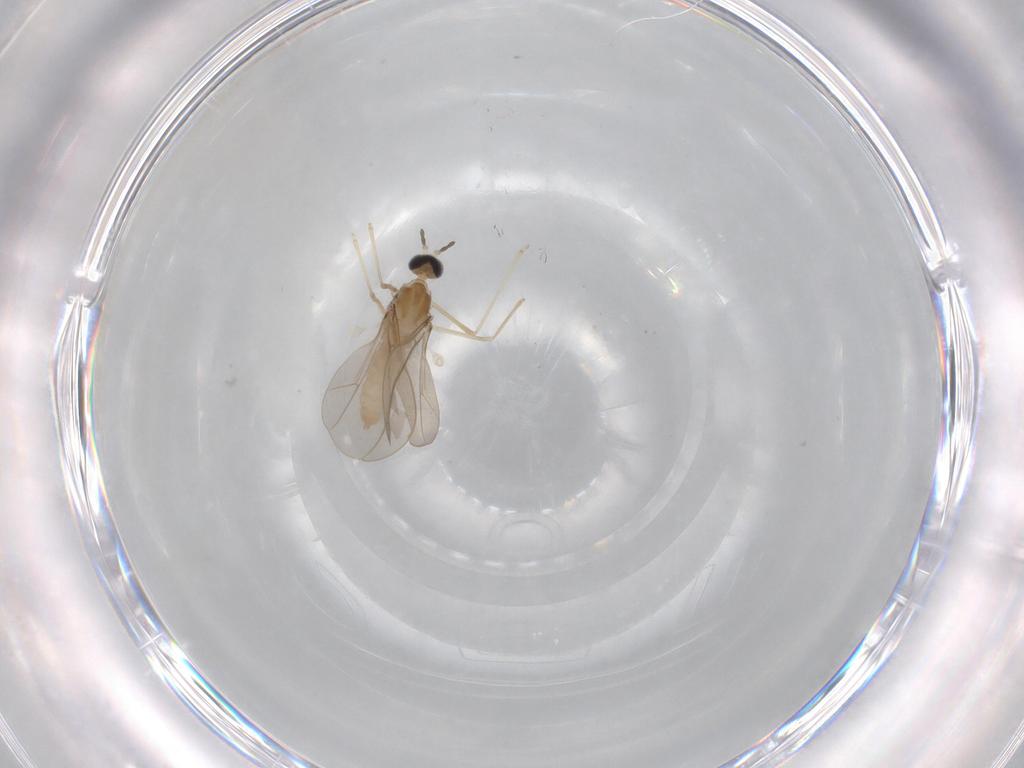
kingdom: Animalia
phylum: Arthropoda
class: Insecta
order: Diptera
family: Cecidomyiidae
